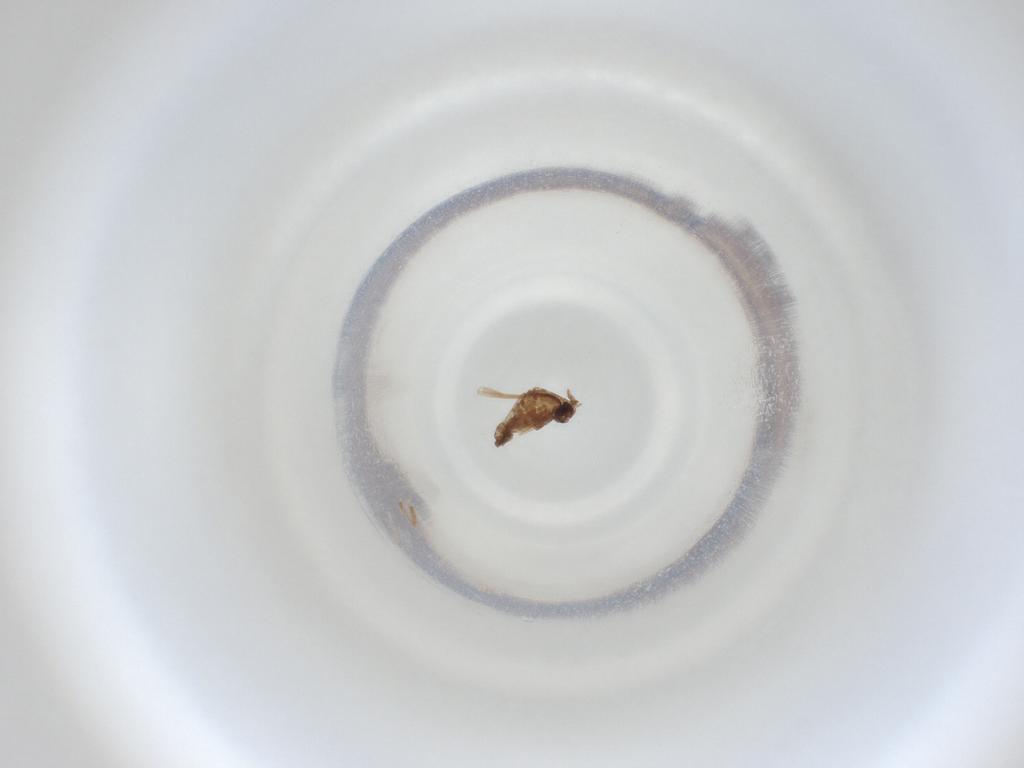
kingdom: Animalia
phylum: Arthropoda
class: Insecta
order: Diptera
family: Cecidomyiidae
